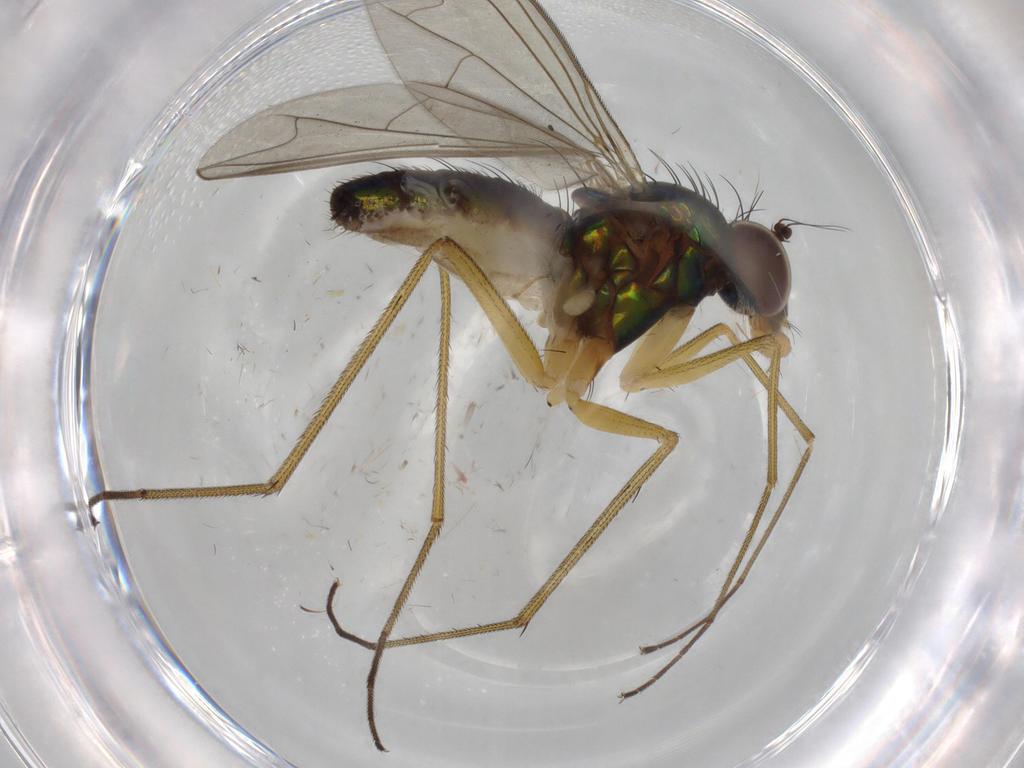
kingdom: Animalia
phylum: Arthropoda
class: Insecta
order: Diptera
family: Dolichopodidae
